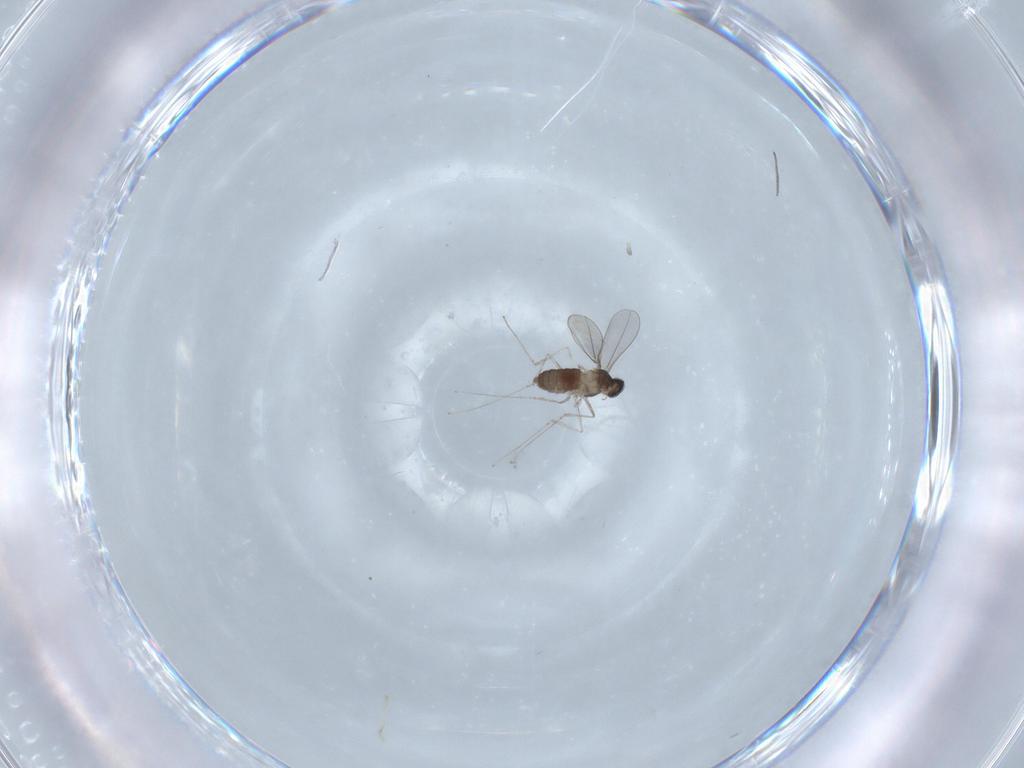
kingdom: Animalia
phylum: Arthropoda
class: Insecta
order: Diptera
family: Cecidomyiidae
